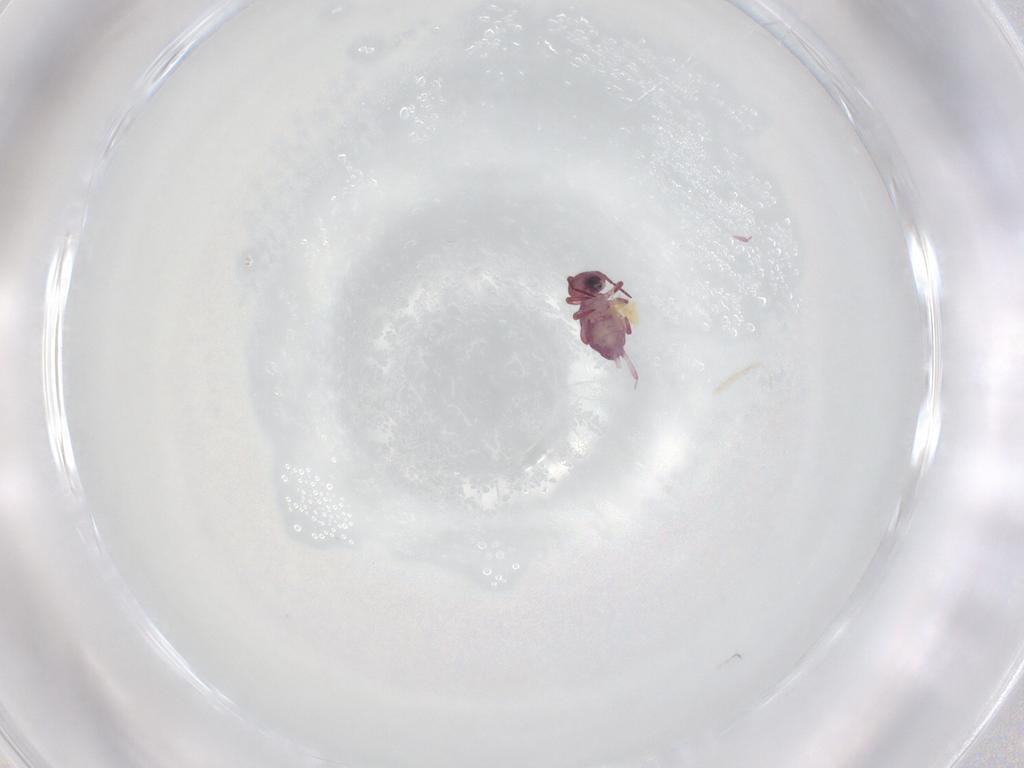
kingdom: Animalia
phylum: Arthropoda
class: Collembola
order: Symphypleona
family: Sminthurididae
